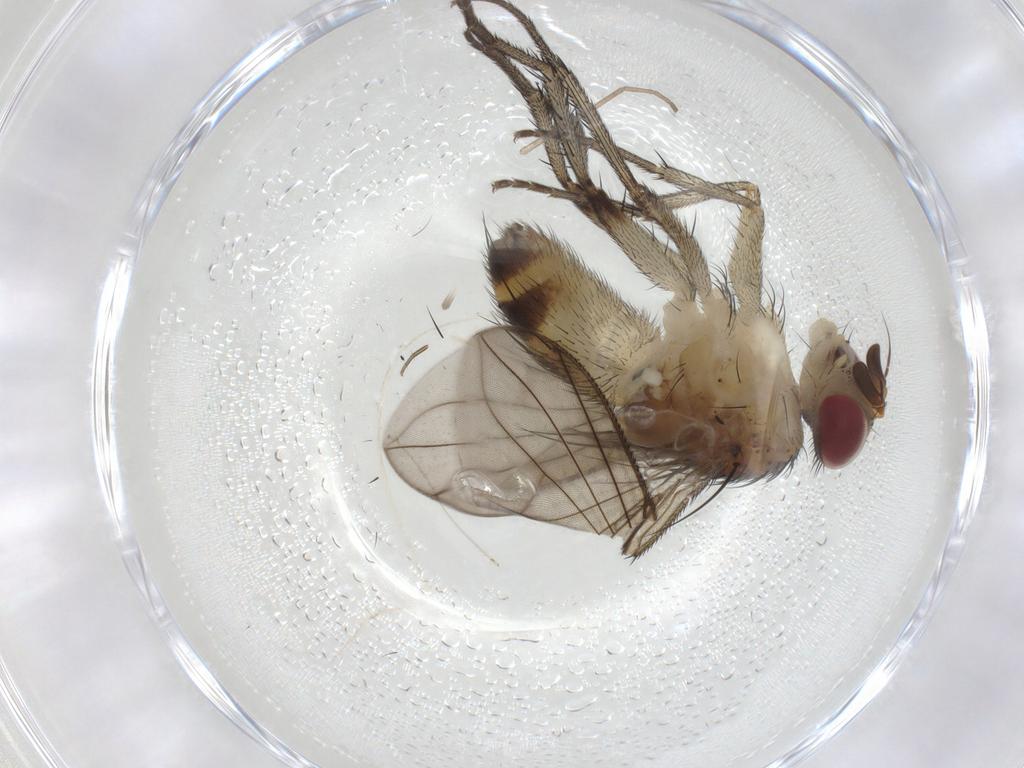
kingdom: Animalia
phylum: Arthropoda
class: Insecta
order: Diptera
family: Tachinidae
